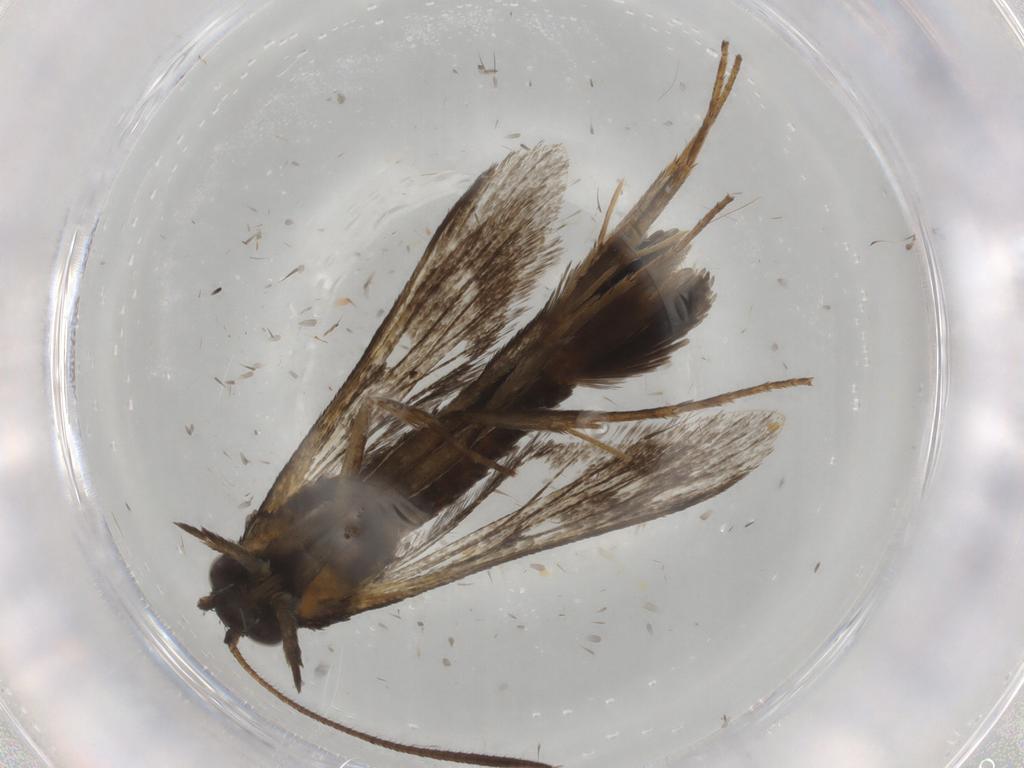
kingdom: Animalia
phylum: Arthropoda
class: Insecta
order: Lepidoptera
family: Sesiidae
